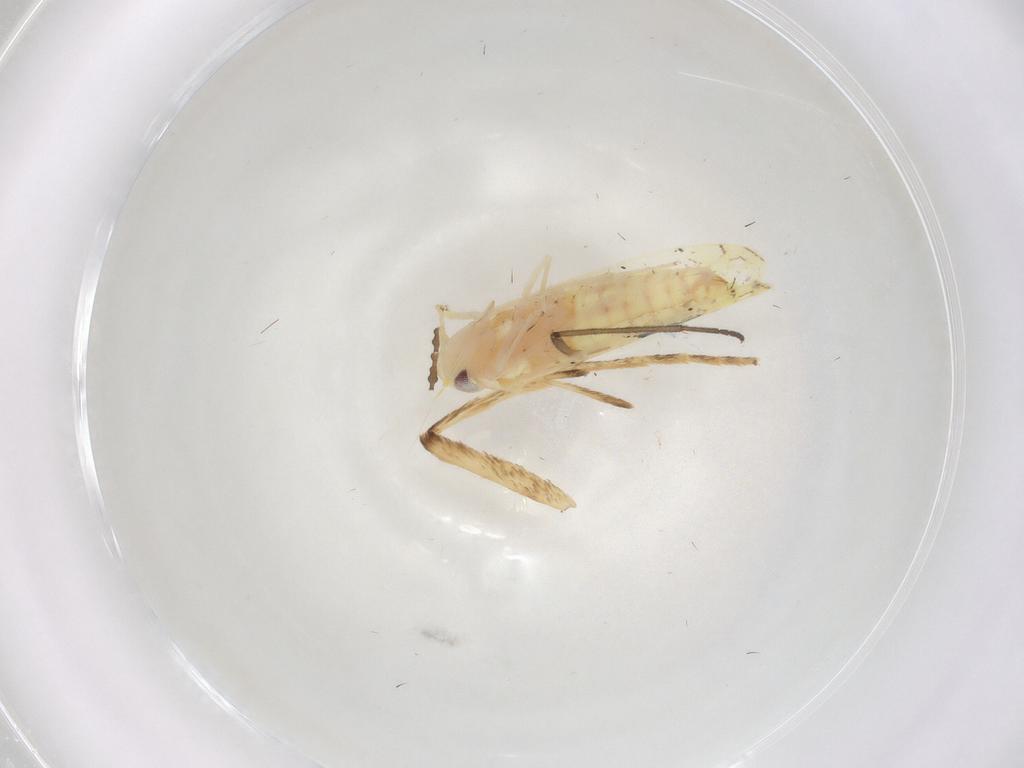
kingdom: Animalia
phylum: Arthropoda
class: Insecta
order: Hemiptera
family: Cicadellidae
